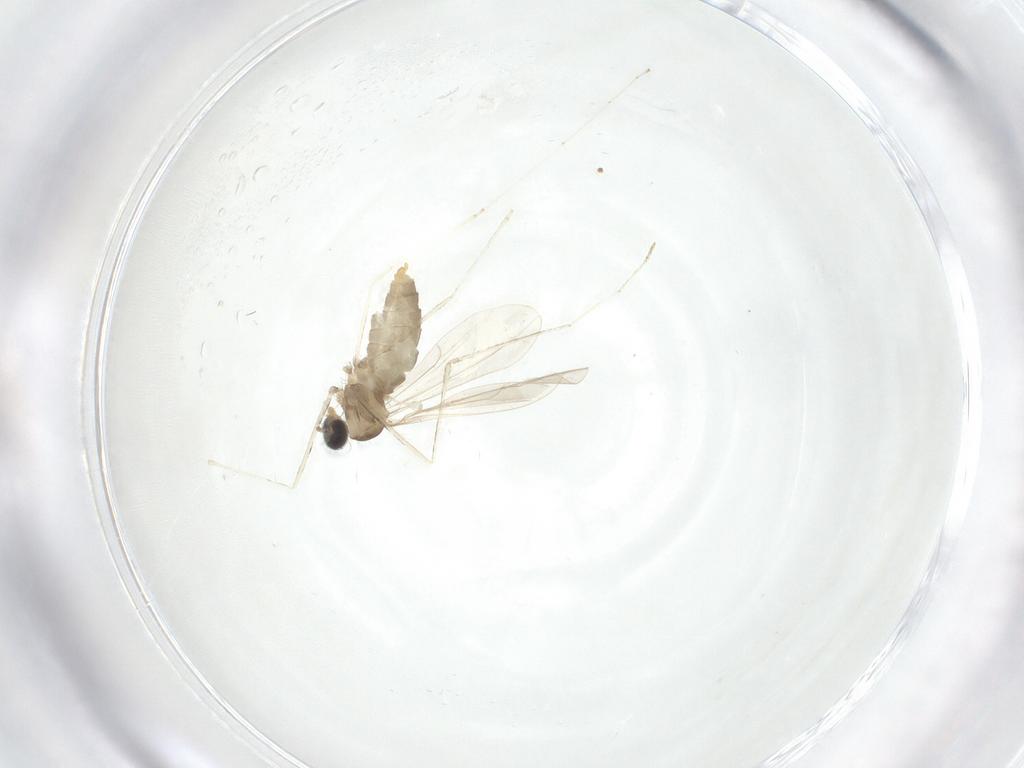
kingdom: Animalia
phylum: Arthropoda
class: Insecta
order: Diptera
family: Cecidomyiidae
